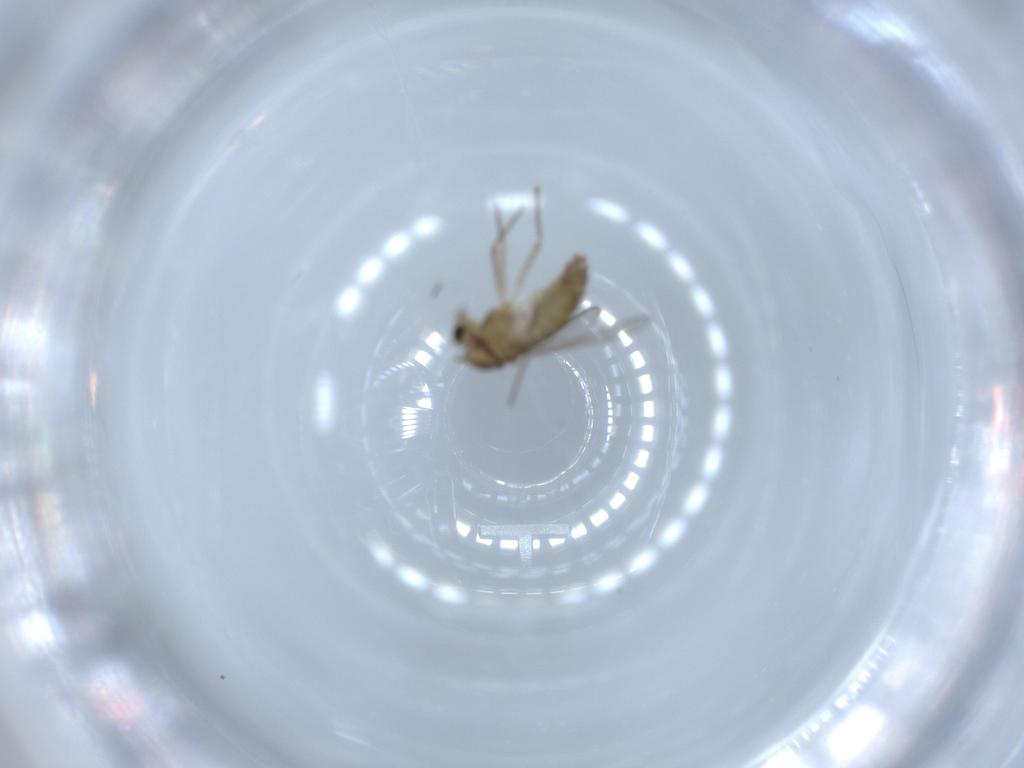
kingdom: Animalia
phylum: Arthropoda
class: Insecta
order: Diptera
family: Chironomidae
